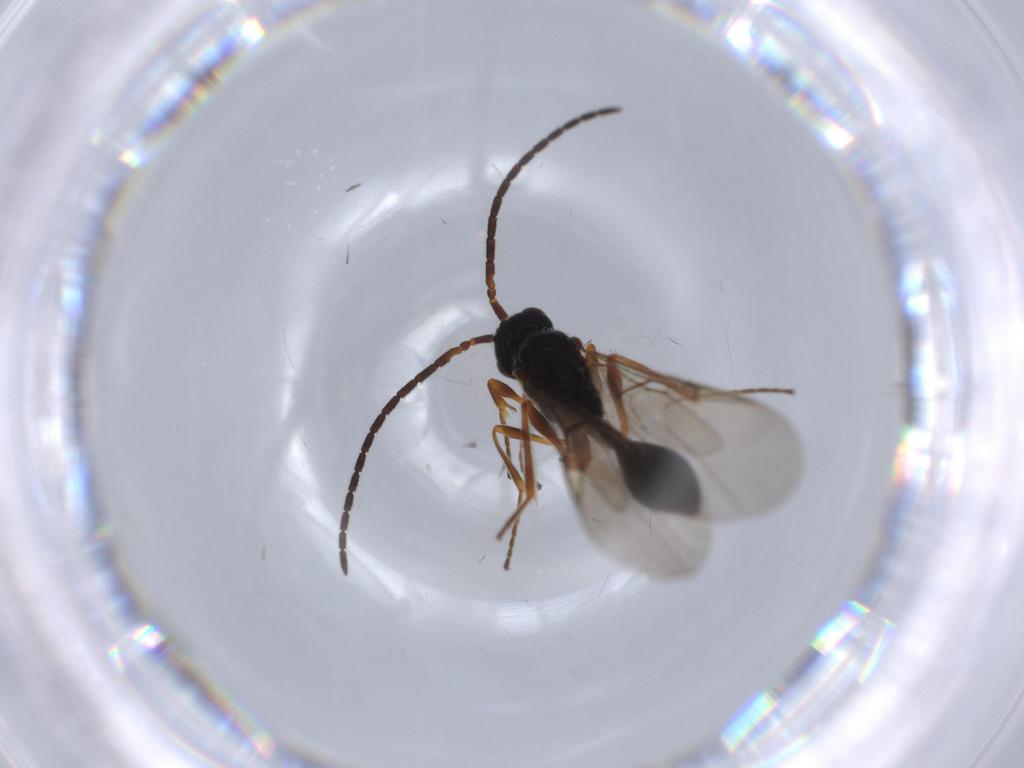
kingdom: Animalia
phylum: Arthropoda
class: Insecta
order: Hymenoptera
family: Diapriidae
